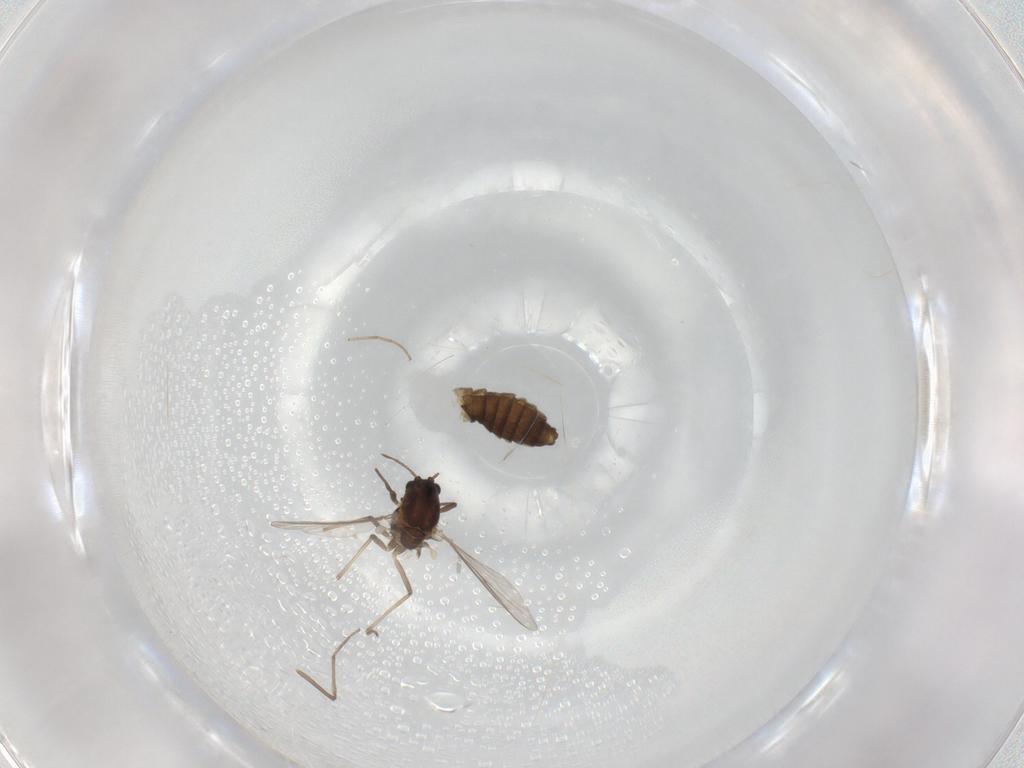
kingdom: Animalia
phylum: Arthropoda
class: Insecta
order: Diptera
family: Chironomidae
